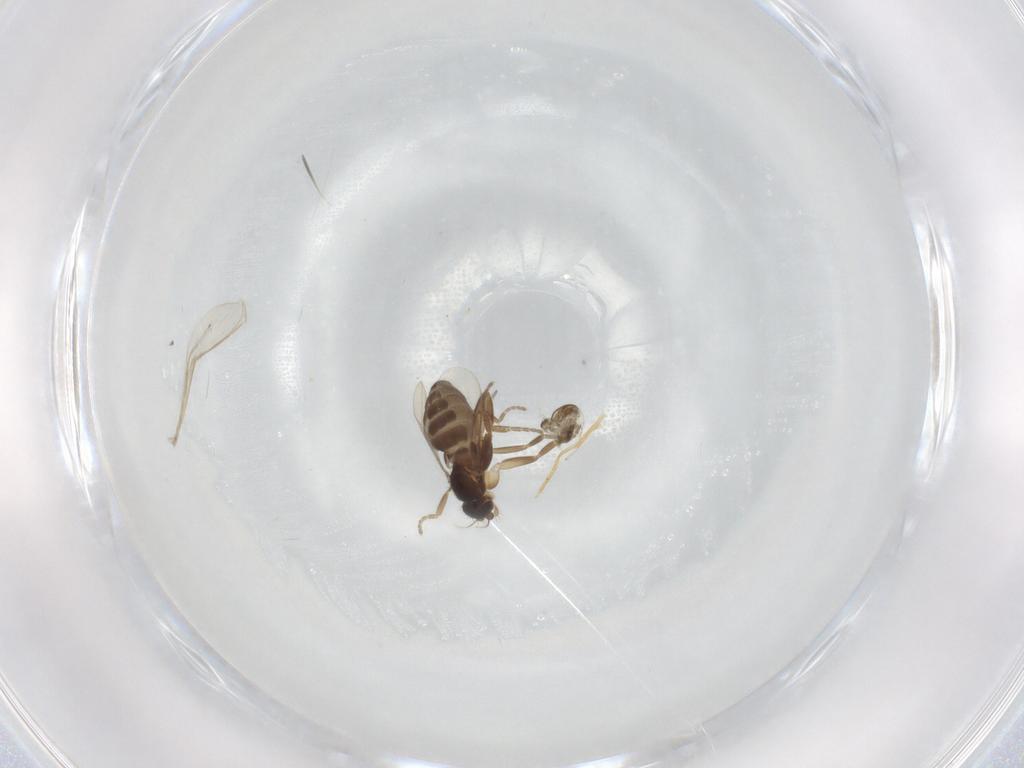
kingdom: Animalia
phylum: Arthropoda
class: Insecta
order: Diptera
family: Phoridae
